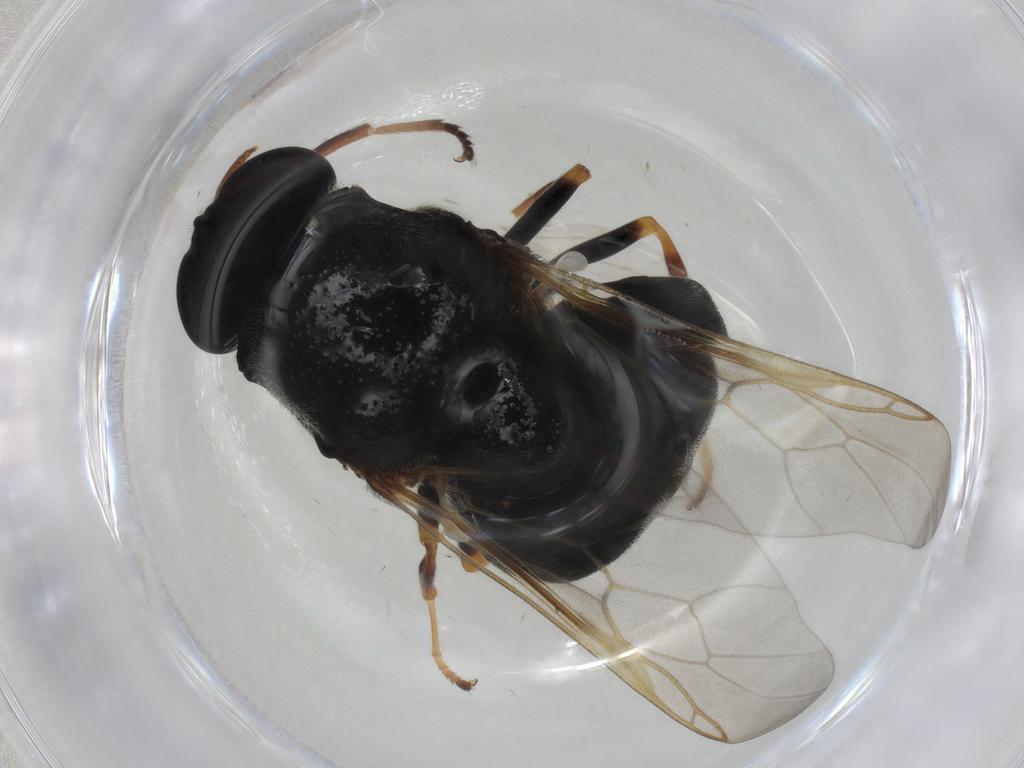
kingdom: Animalia
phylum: Arthropoda
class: Insecta
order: Diptera
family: Stratiomyidae
